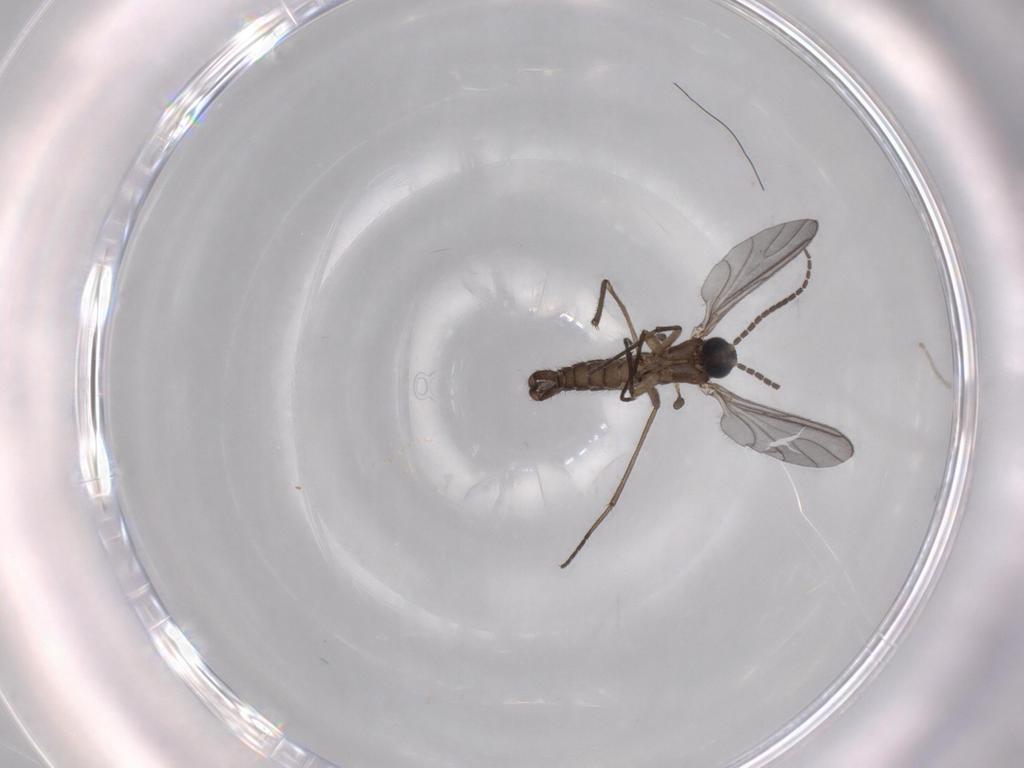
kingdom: Animalia
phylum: Arthropoda
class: Insecta
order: Diptera
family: Sciaridae
